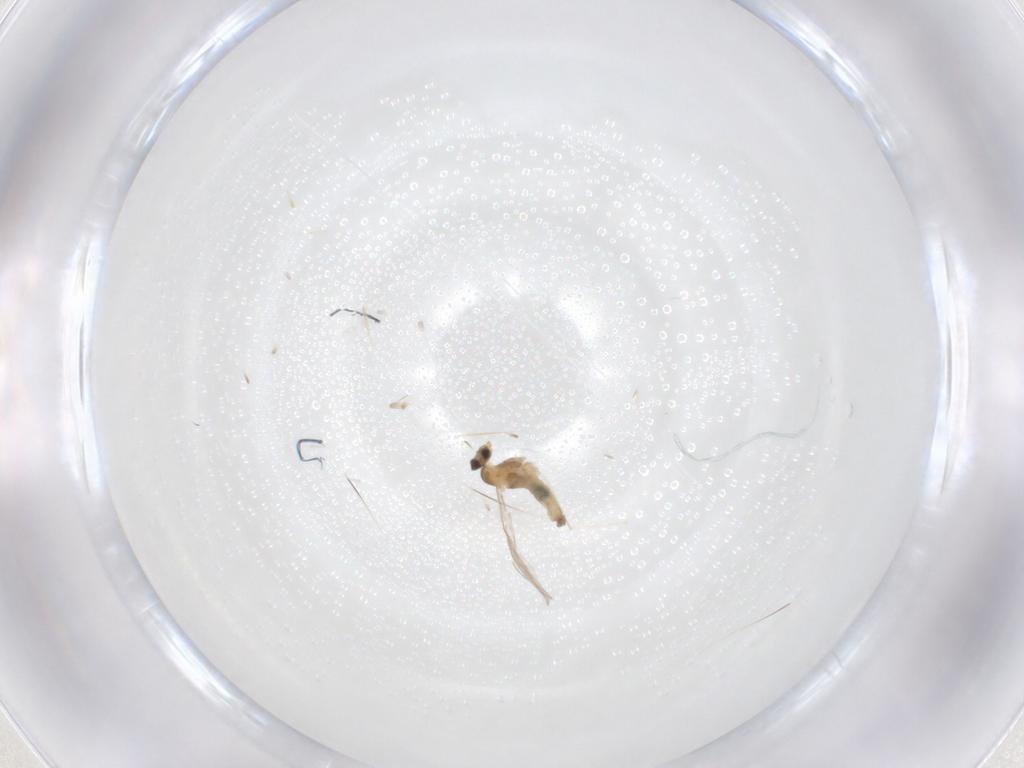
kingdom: Animalia
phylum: Arthropoda
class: Insecta
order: Diptera
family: Cecidomyiidae
